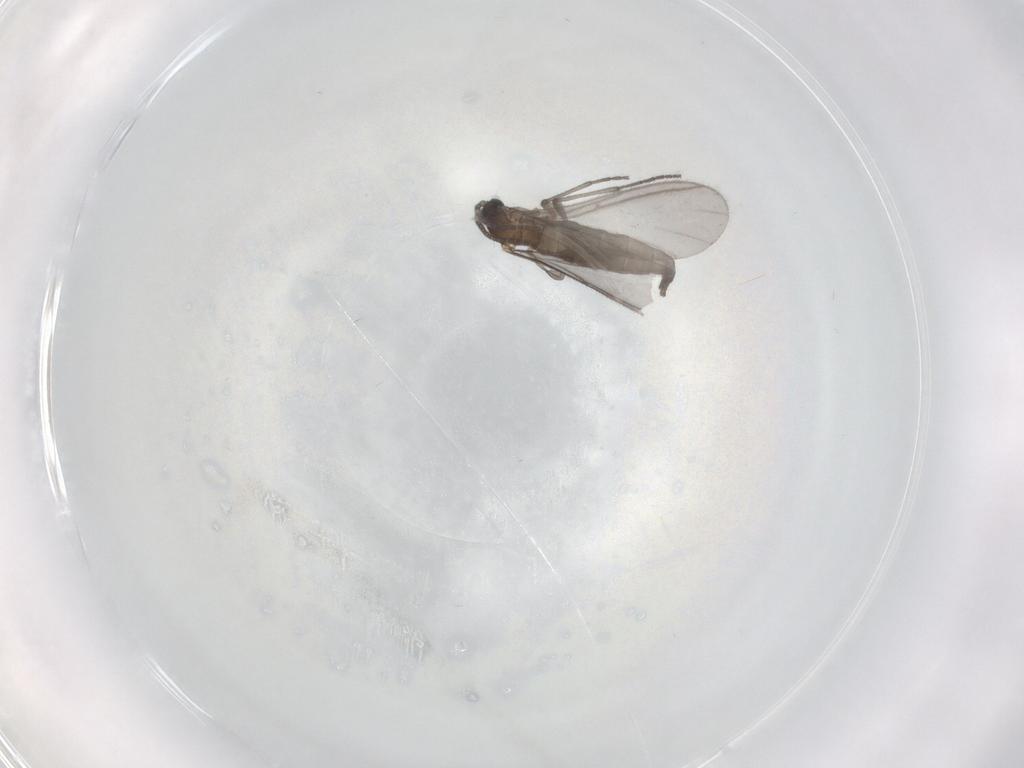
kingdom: Animalia
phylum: Arthropoda
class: Insecta
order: Diptera
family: Sciaridae
